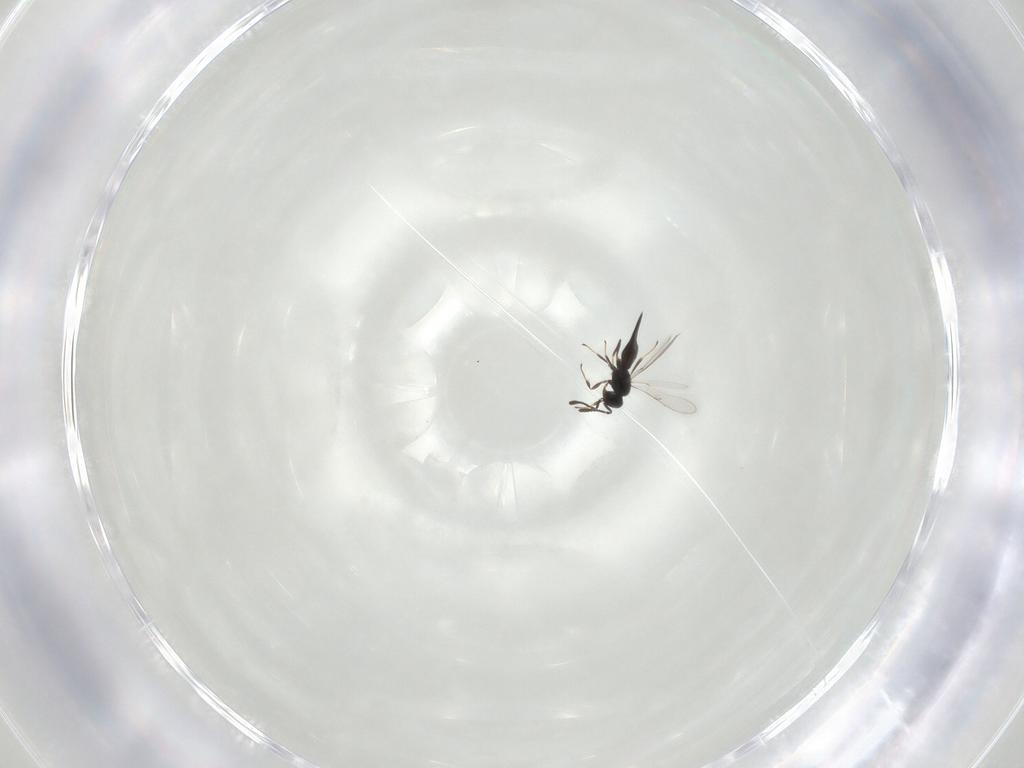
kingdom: Animalia
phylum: Arthropoda
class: Insecta
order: Hymenoptera
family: Scelionidae
